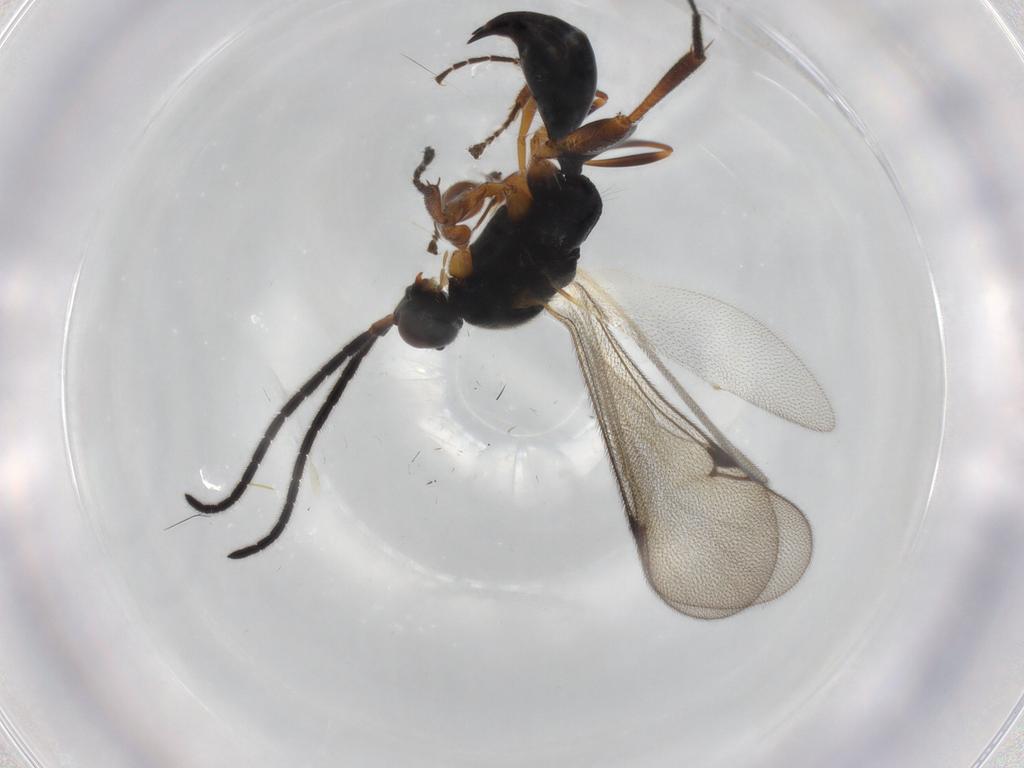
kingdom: Animalia
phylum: Arthropoda
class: Insecta
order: Hymenoptera
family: Proctotrupidae
